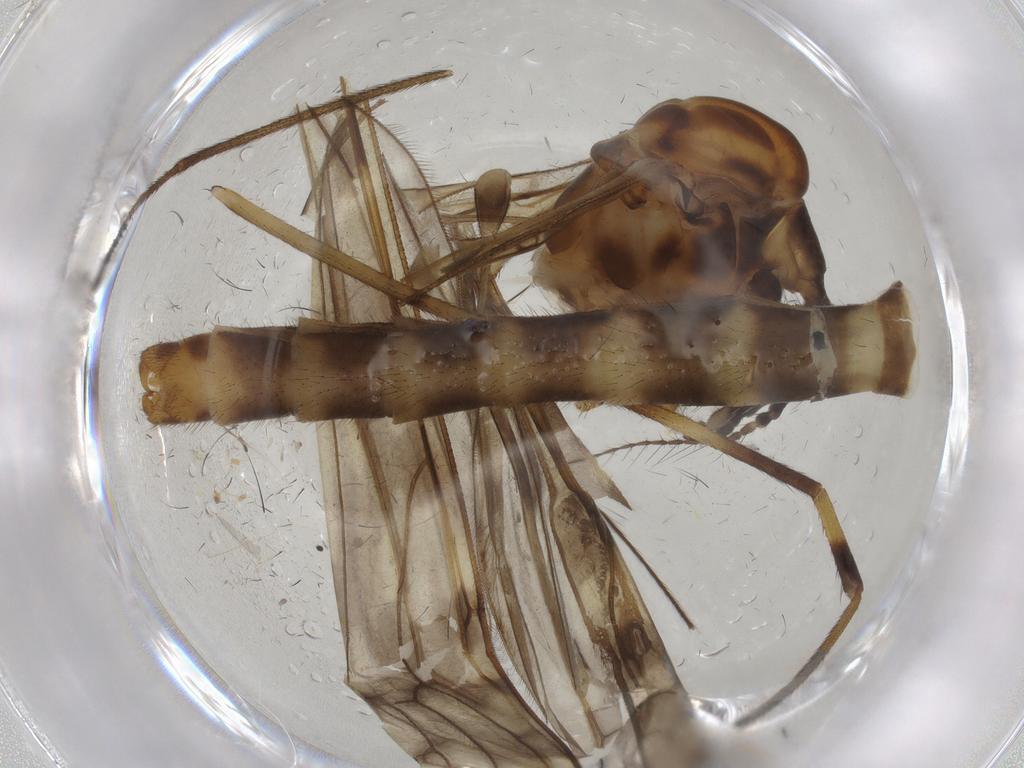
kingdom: Animalia
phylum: Arthropoda
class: Insecta
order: Diptera
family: Limoniidae
